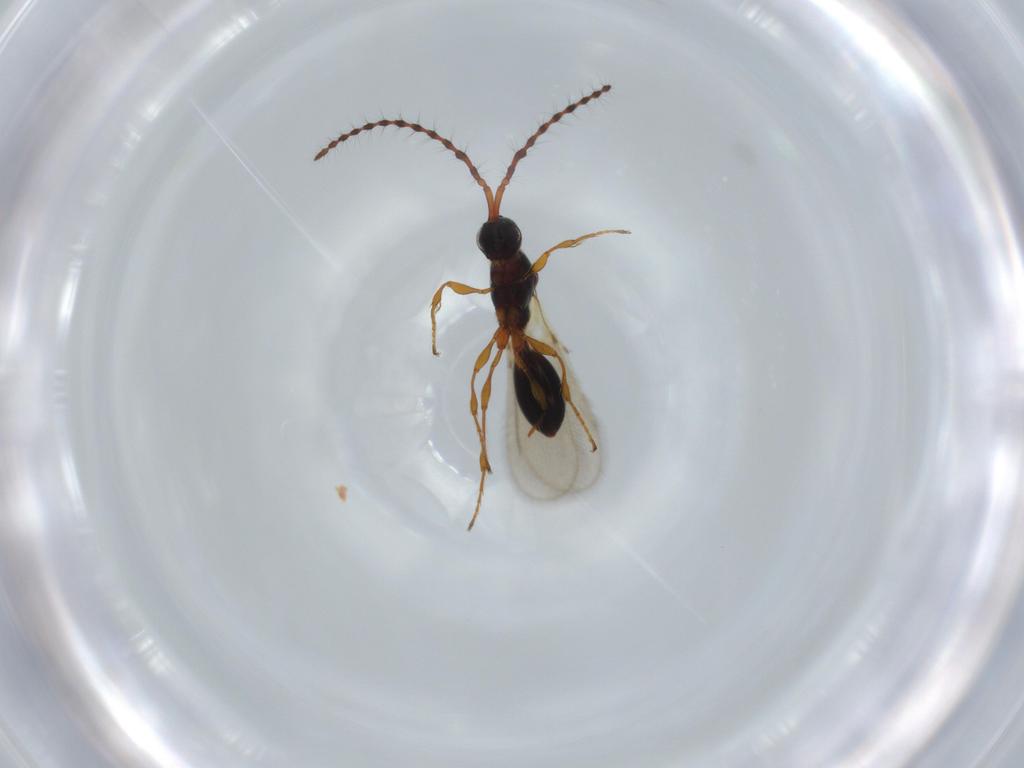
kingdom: Animalia
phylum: Arthropoda
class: Insecta
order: Hymenoptera
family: Diapriidae
